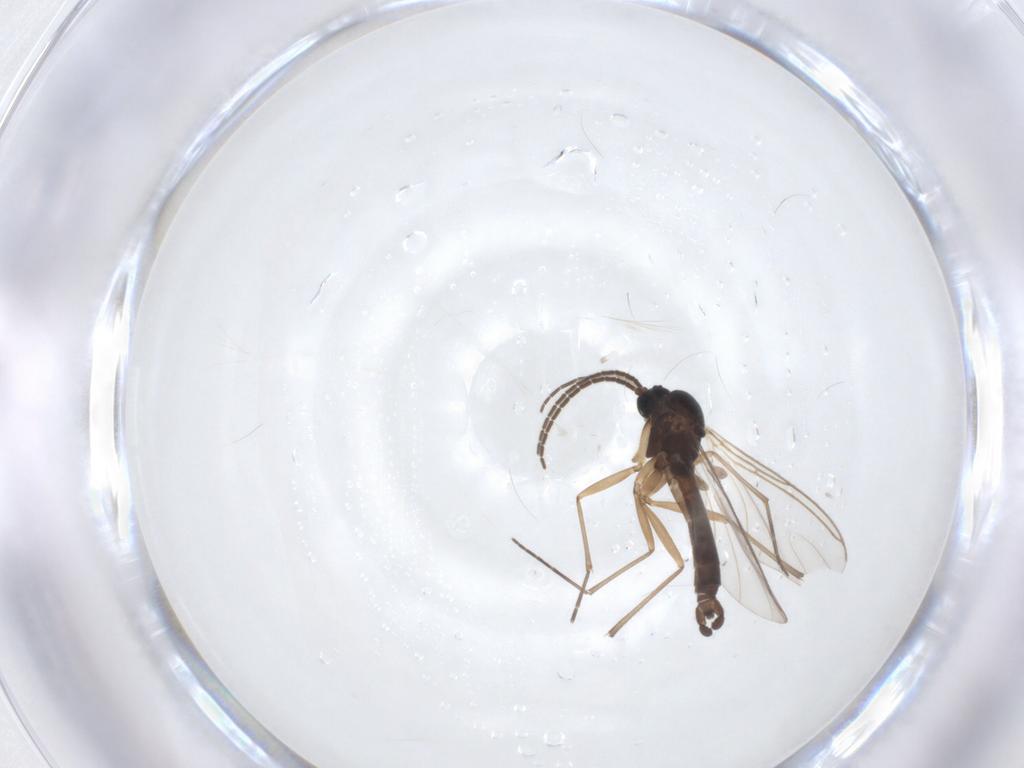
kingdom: Animalia
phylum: Arthropoda
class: Insecta
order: Diptera
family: Sciaridae
